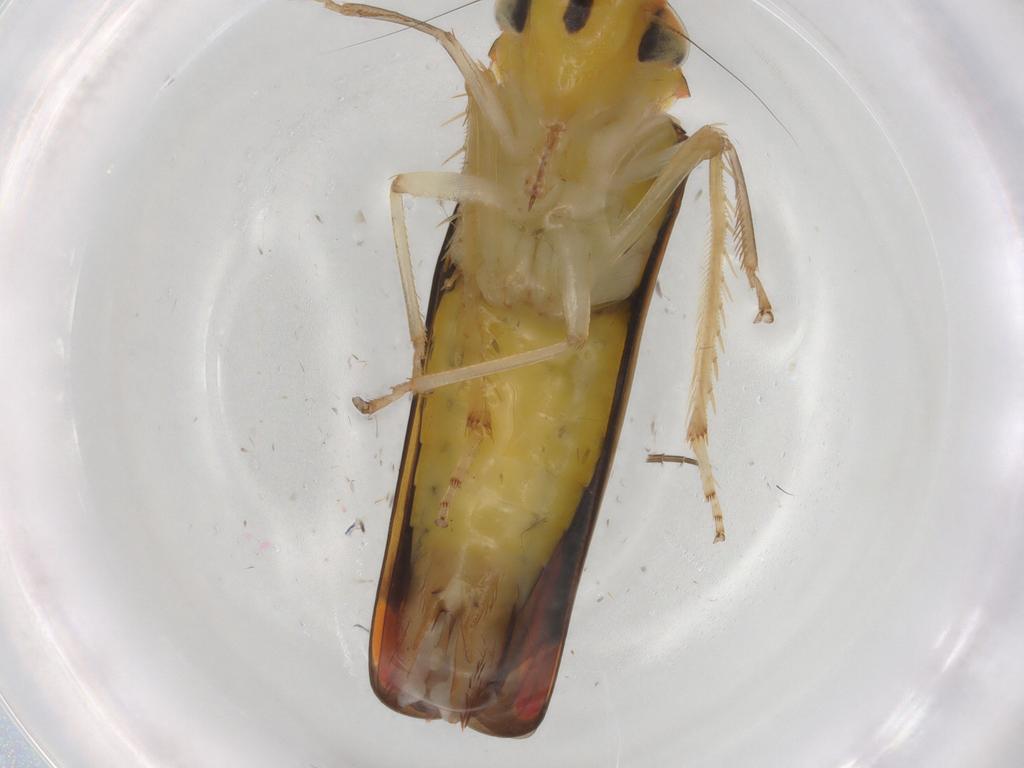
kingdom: Animalia
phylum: Arthropoda
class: Insecta
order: Hemiptera
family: Cicadellidae
